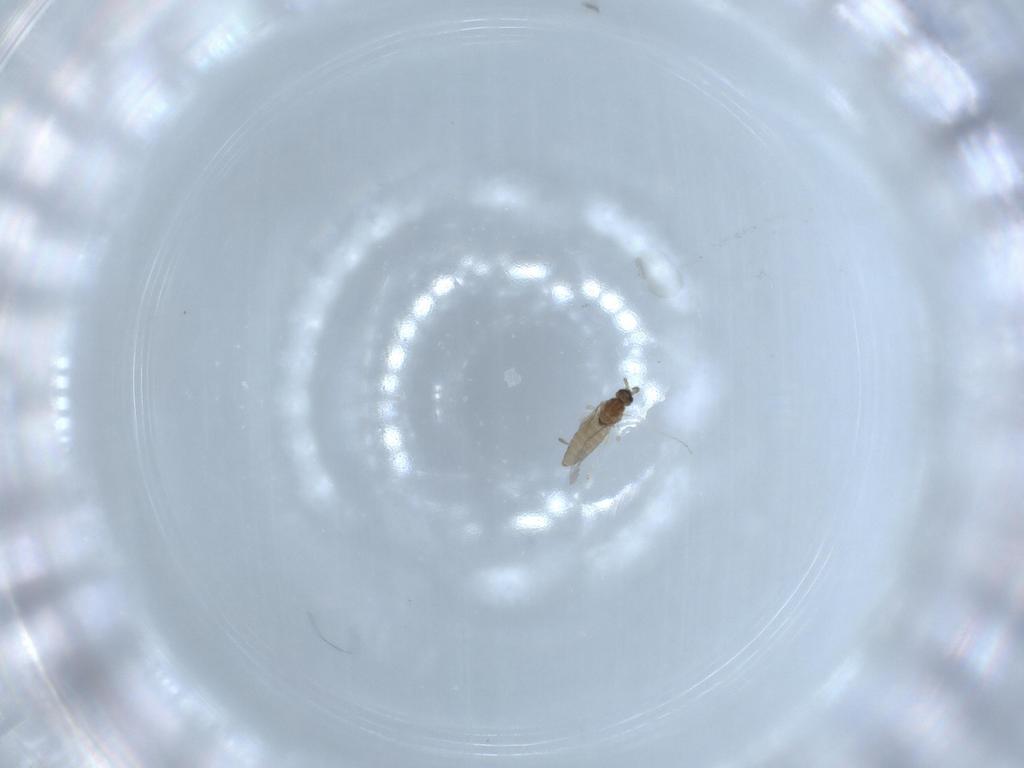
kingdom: Animalia
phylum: Arthropoda
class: Insecta
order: Diptera
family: Cecidomyiidae
